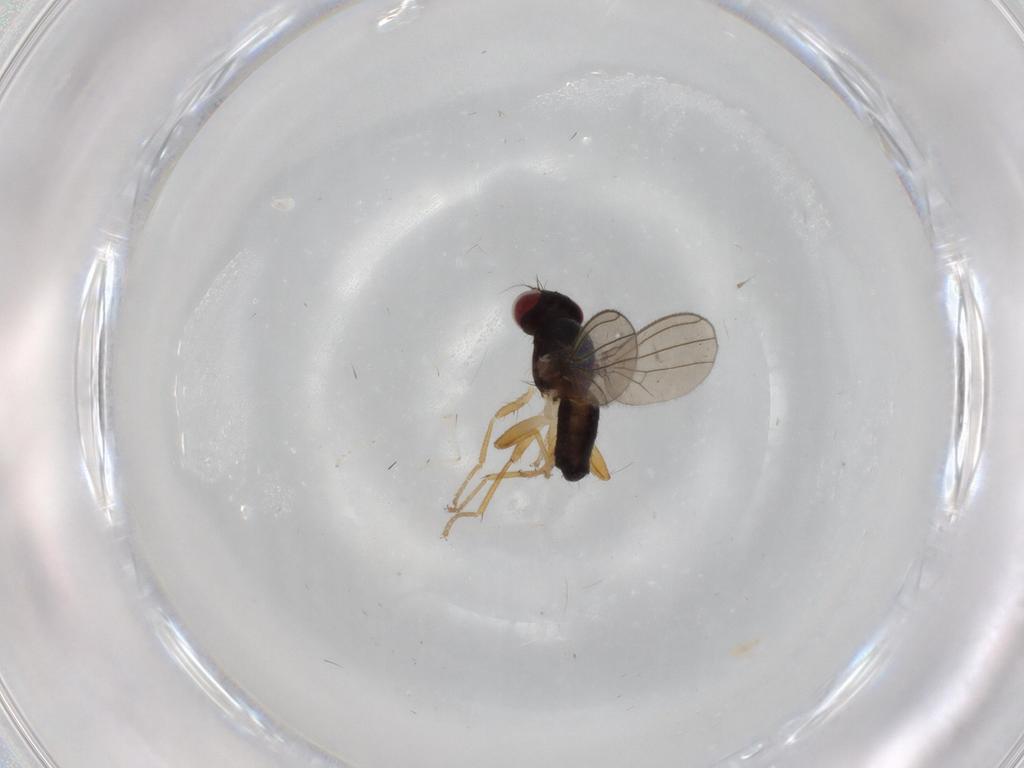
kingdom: Animalia
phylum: Arthropoda
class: Insecta
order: Diptera
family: Anthomyzidae
